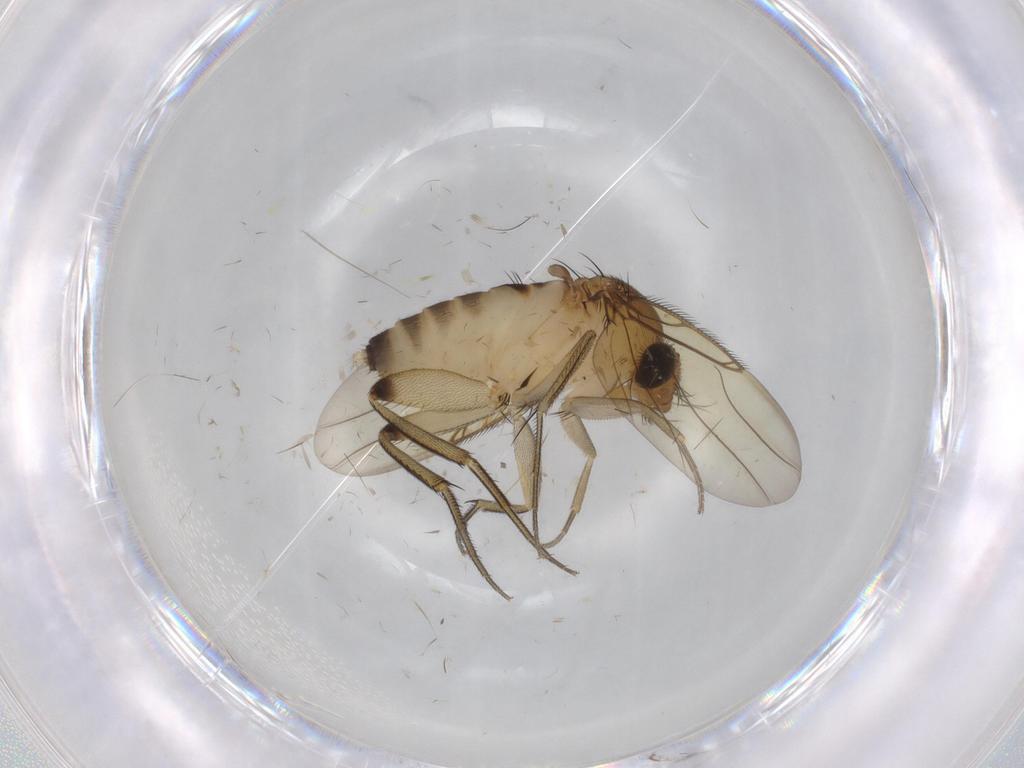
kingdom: Animalia
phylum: Arthropoda
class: Insecta
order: Diptera
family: Phoridae
